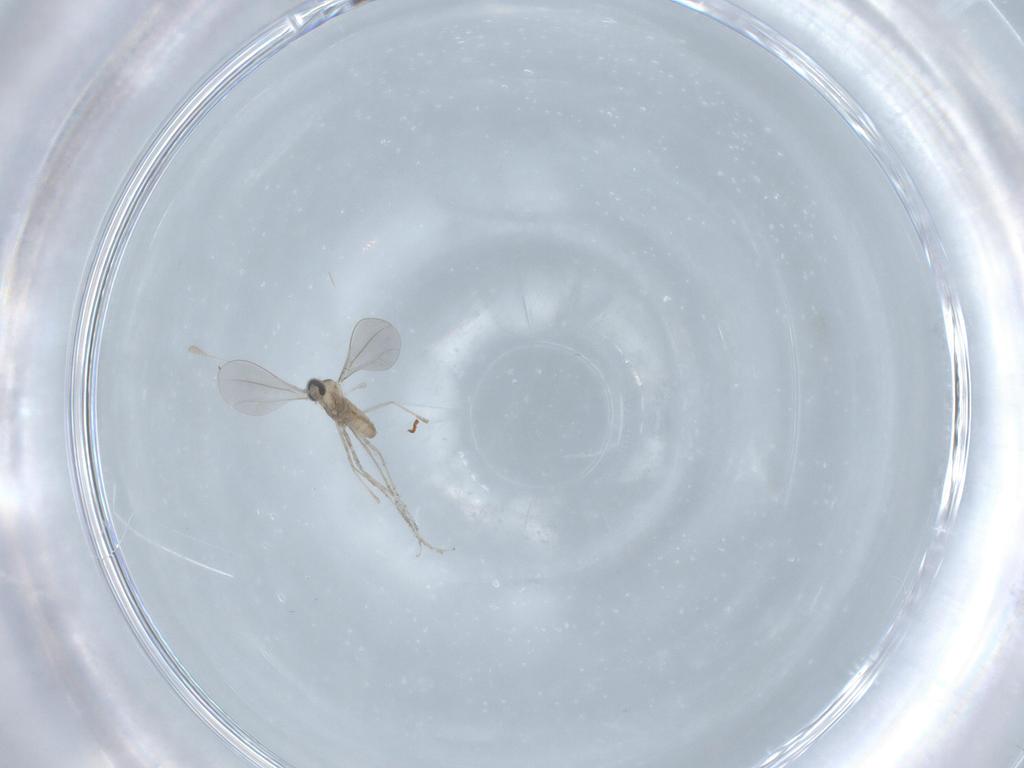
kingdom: Animalia
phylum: Arthropoda
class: Insecta
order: Diptera
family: Cecidomyiidae
